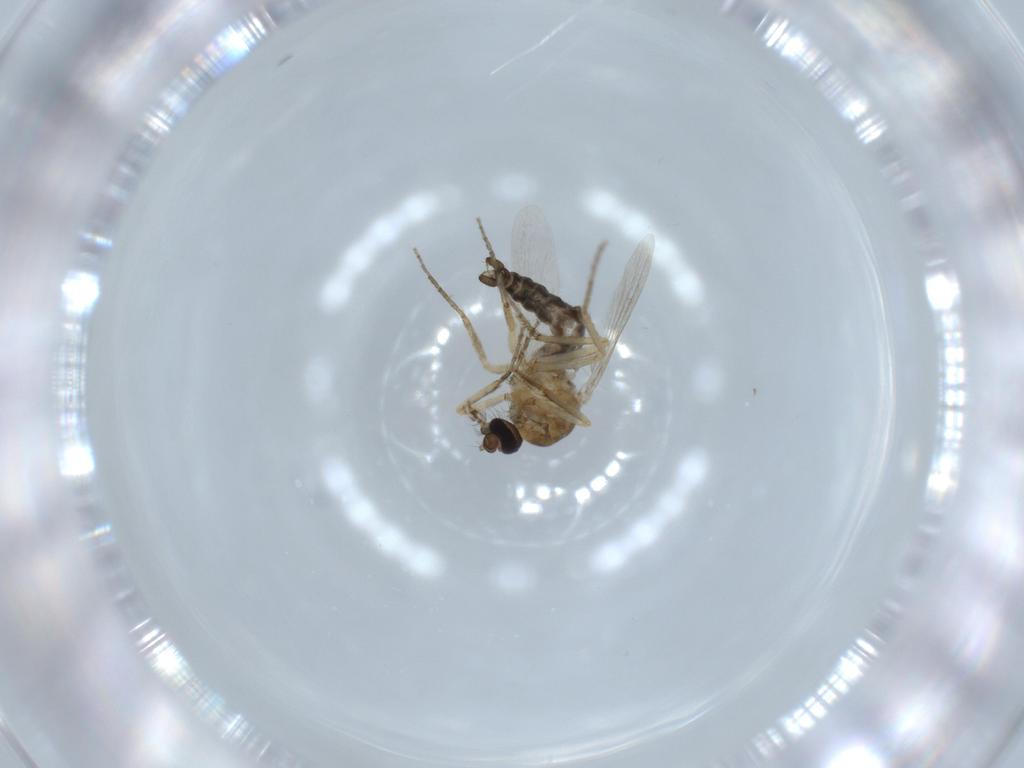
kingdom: Animalia
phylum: Arthropoda
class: Insecta
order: Diptera
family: Ceratopogonidae
